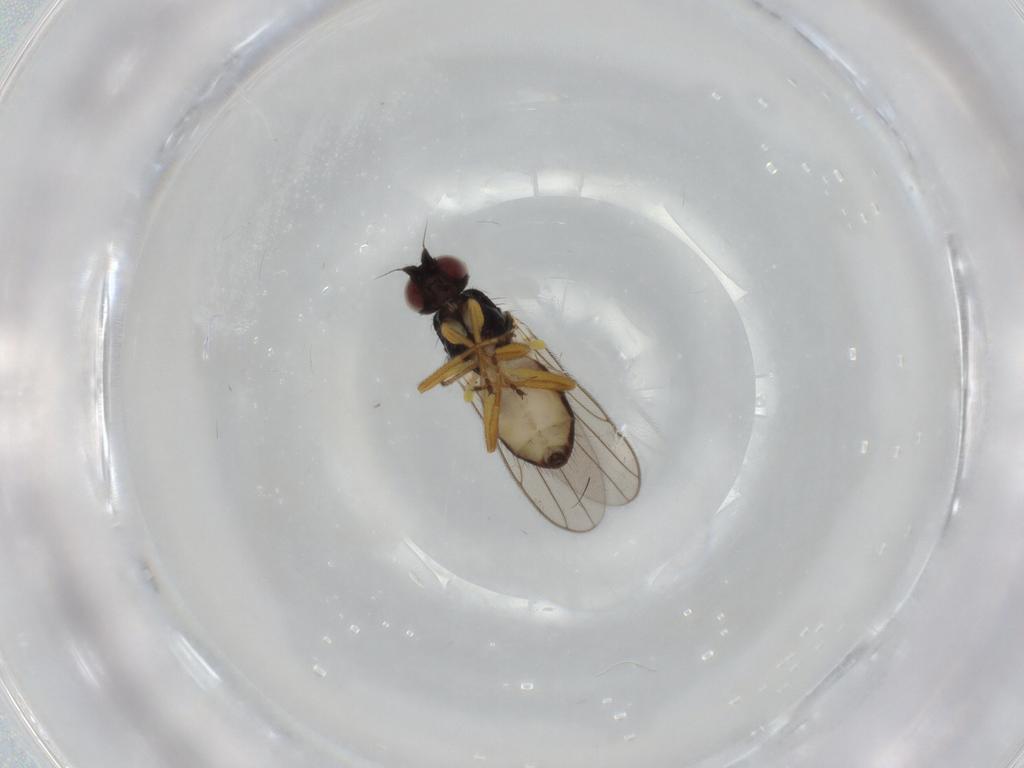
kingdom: Animalia
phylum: Arthropoda
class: Insecta
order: Diptera
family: Chloropidae
